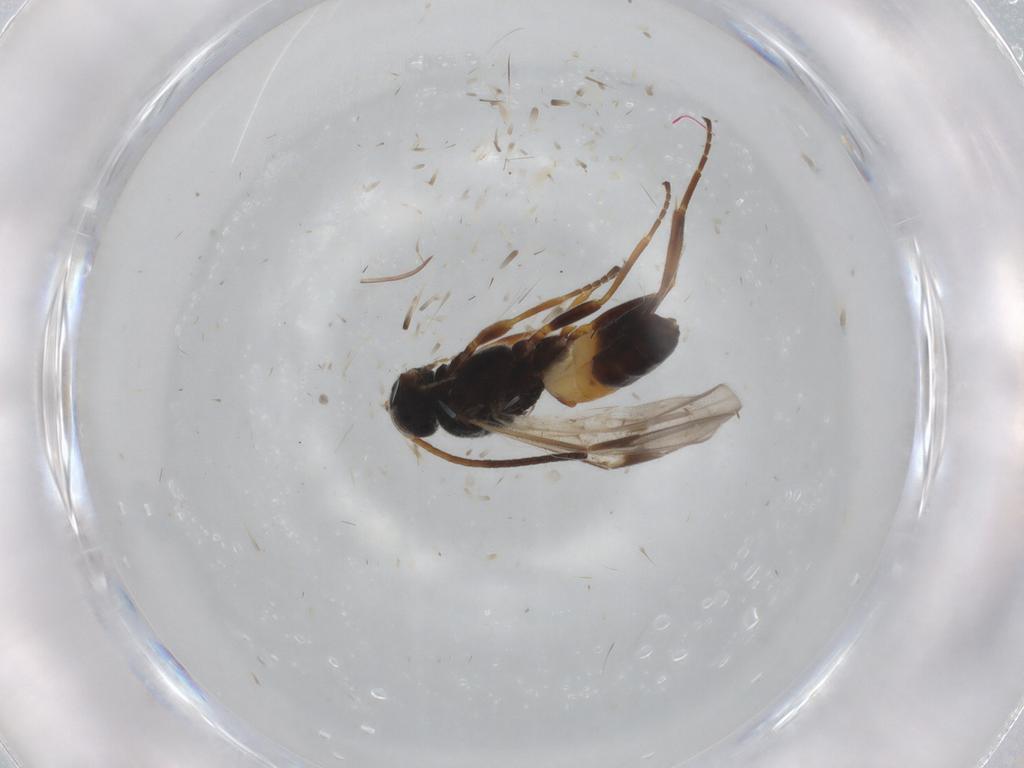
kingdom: Animalia
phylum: Arthropoda
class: Insecta
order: Hymenoptera
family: Braconidae
